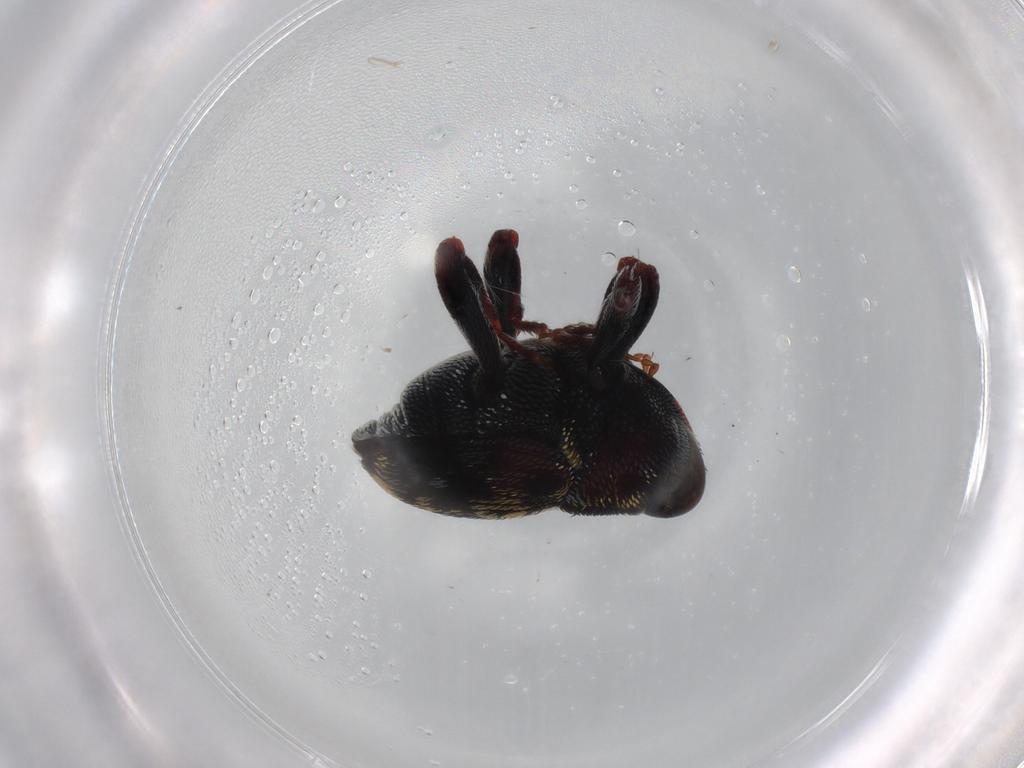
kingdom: Animalia
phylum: Arthropoda
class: Insecta
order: Coleoptera
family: Curculionidae
